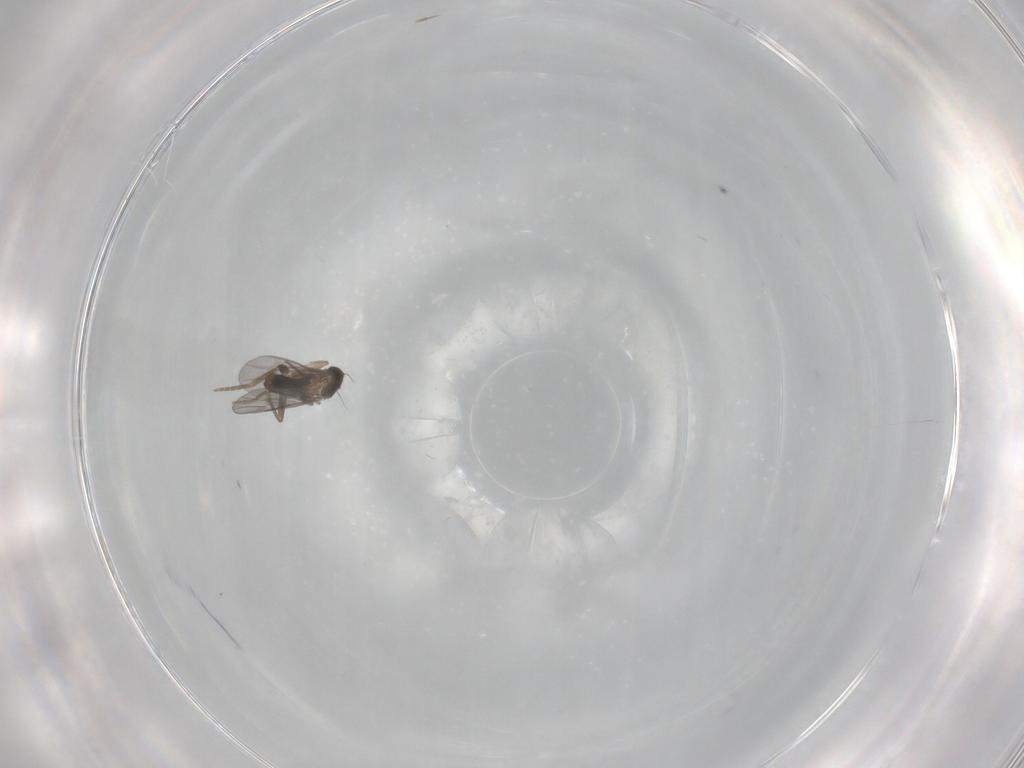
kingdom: Animalia
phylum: Arthropoda
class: Insecta
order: Diptera
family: Chironomidae
